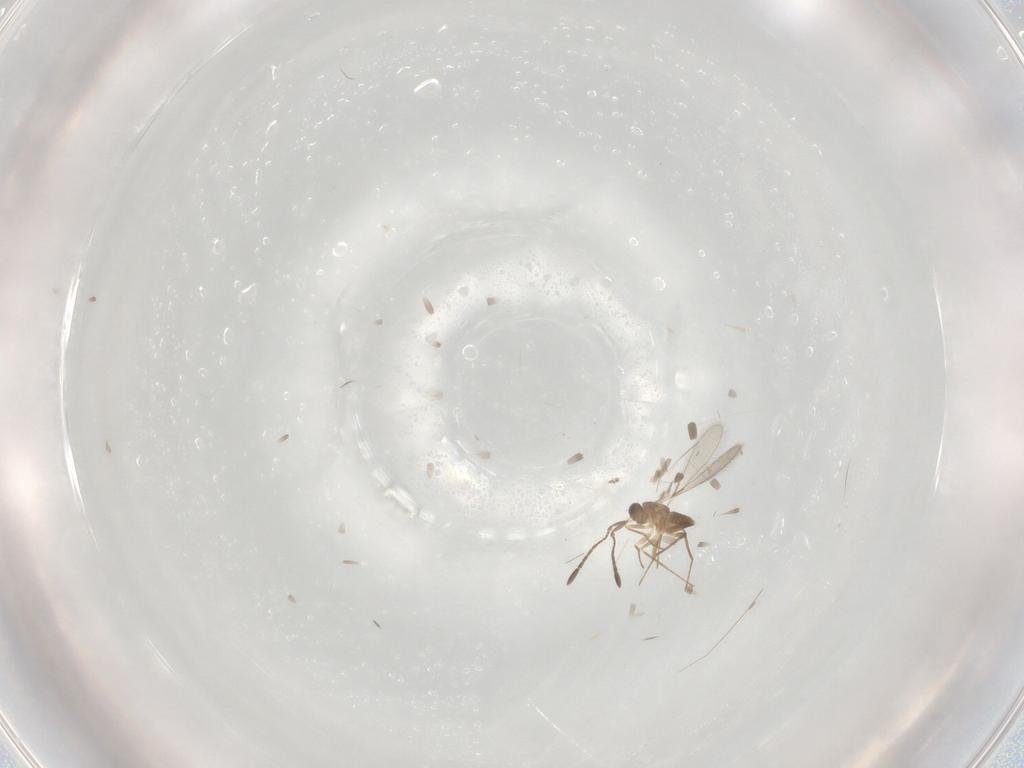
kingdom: Animalia
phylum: Arthropoda
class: Insecta
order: Hymenoptera
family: Mymaridae
